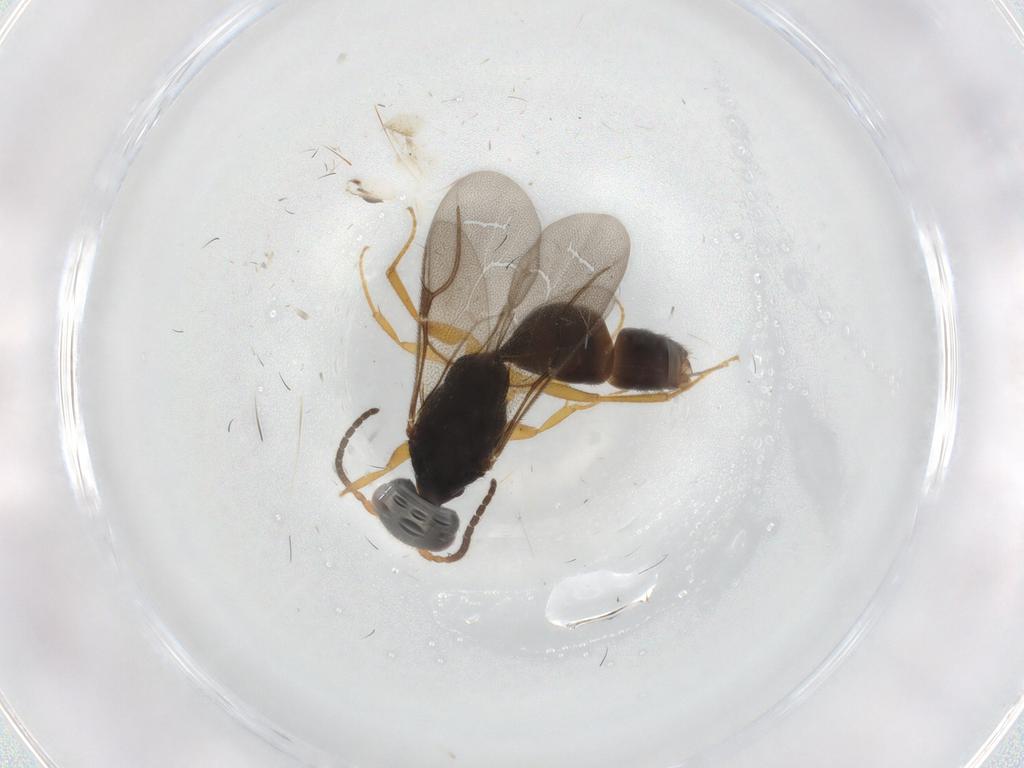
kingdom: Animalia
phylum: Arthropoda
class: Insecta
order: Hymenoptera
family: Bethylidae
